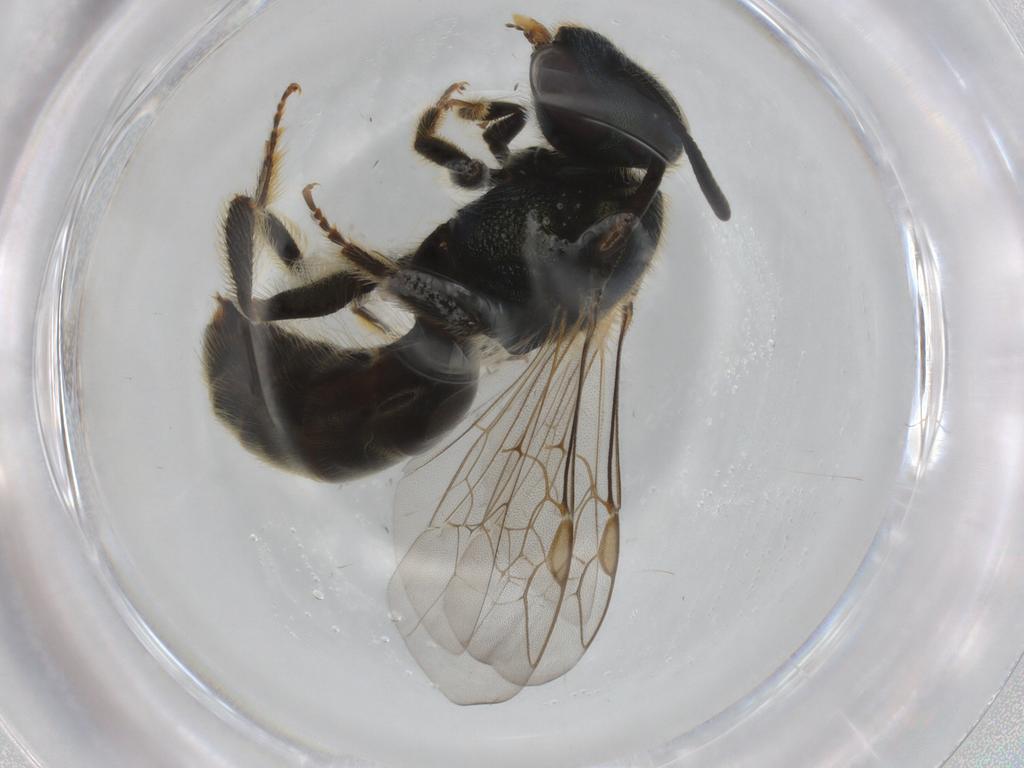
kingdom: Animalia
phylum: Arthropoda
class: Insecta
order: Hymenoptera
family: Halictidae
